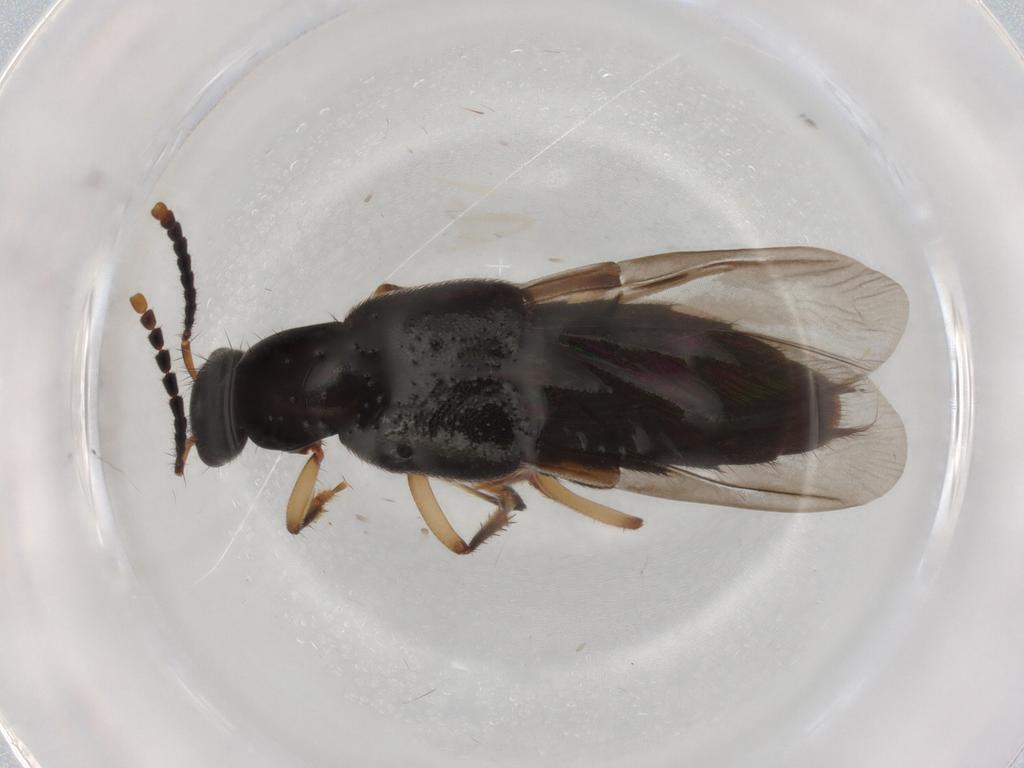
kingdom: Animalia
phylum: Arthropoda
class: Insecta
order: Coleoptera
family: Staphylinidae
